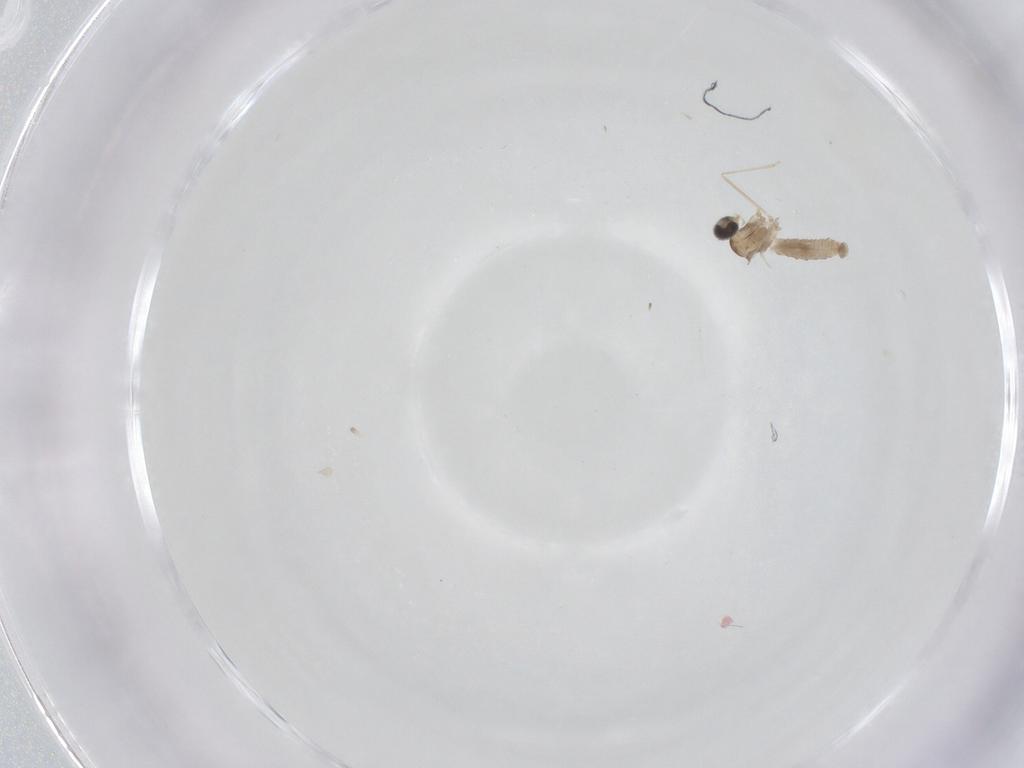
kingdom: Animalia
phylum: Arthropoda
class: Insecta
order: Diptera
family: Cecidomyiidae
